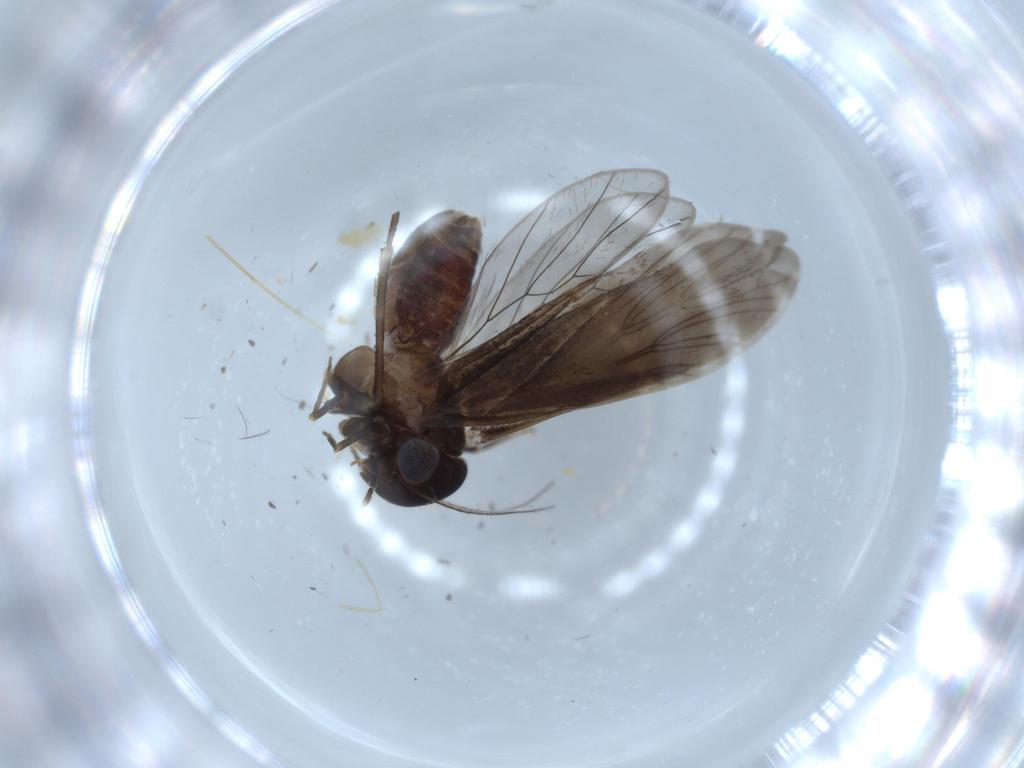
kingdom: Animalia
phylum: Arthropoda
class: Insecta
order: Psocodea
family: Amphientomidae
